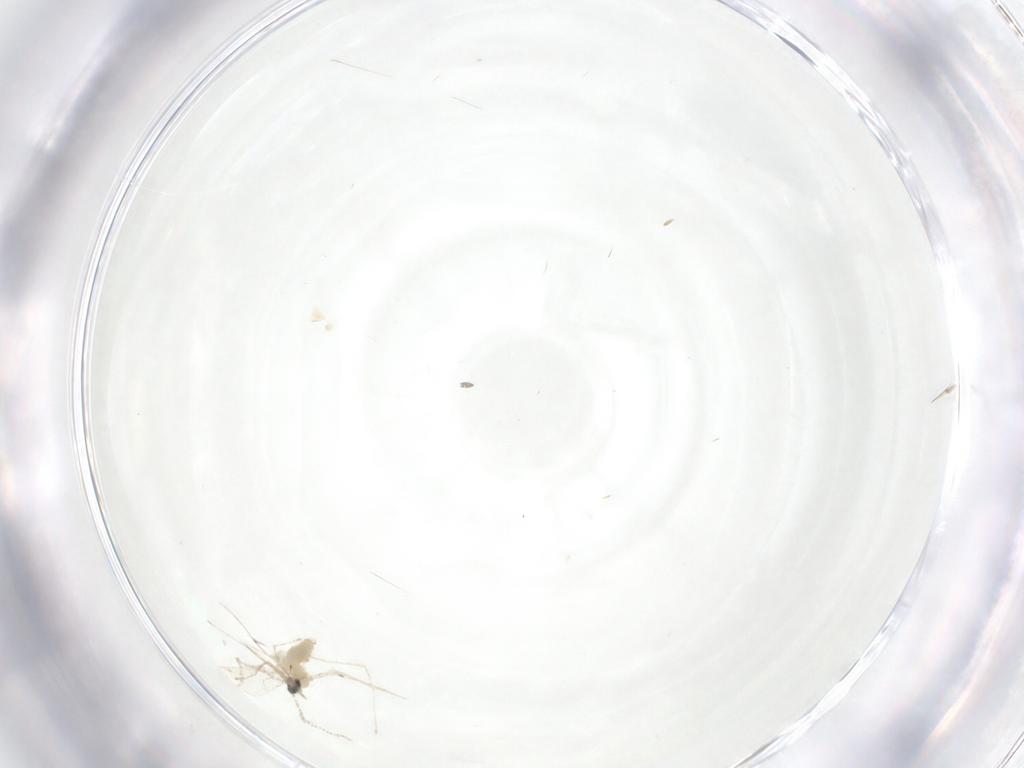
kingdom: Animalia
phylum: Arthropoda
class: Insecta
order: Diptera
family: Cecidomyiidae
